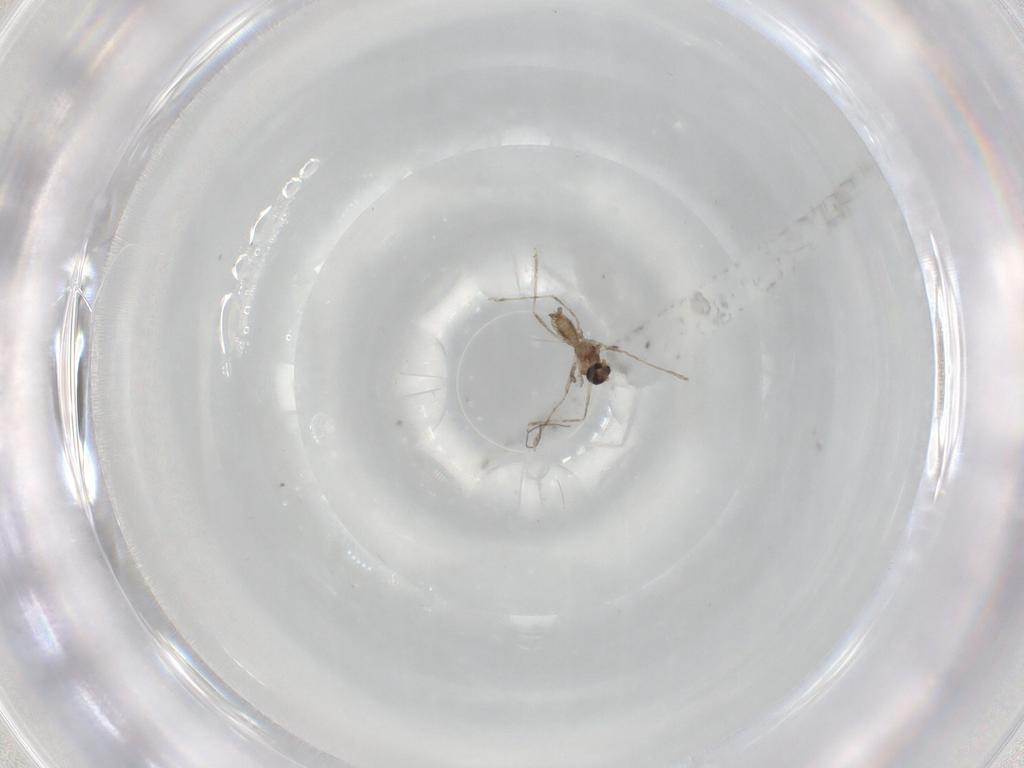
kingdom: Animalia
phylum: Arthropoda
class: Insecta
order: Diptera
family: Cecidomyiidae
